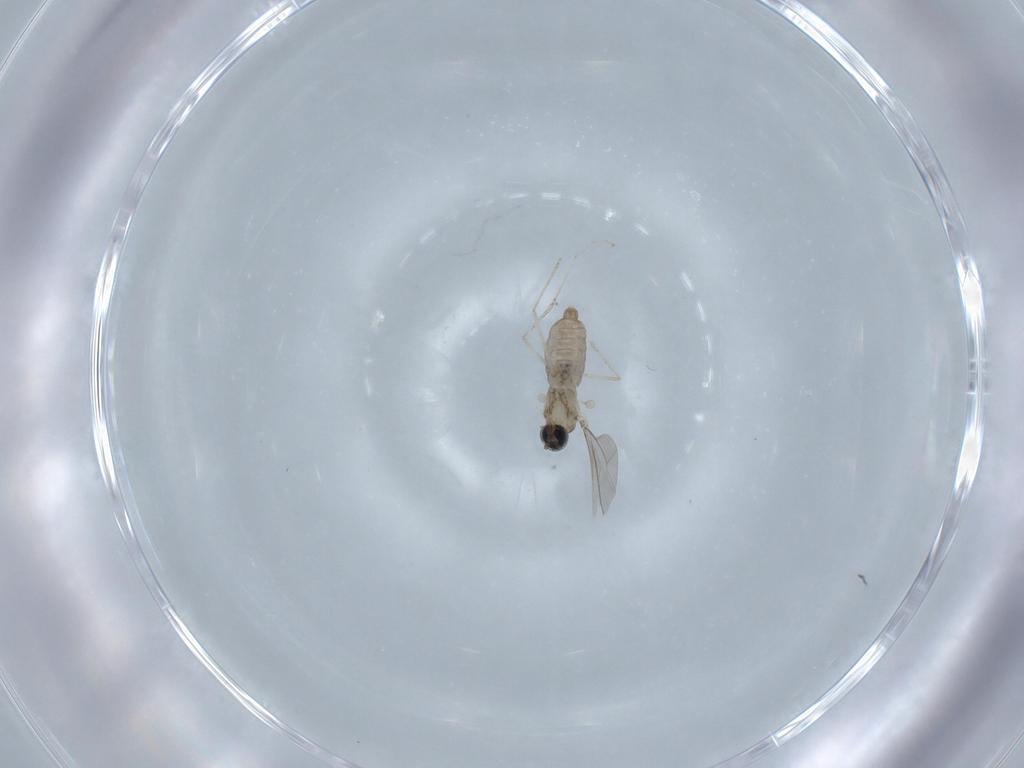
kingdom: Animalia
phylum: Arthropoda
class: Insecta
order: Diptera
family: Cecidomyiidae
